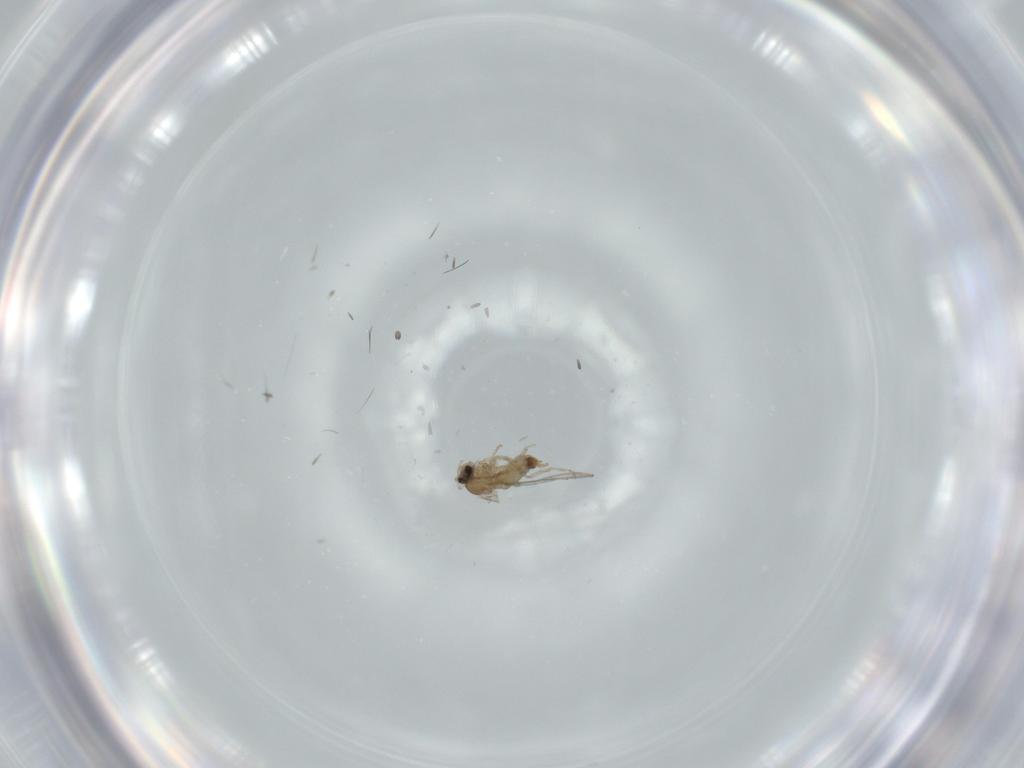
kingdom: Animalia
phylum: Arthropoda
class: Insecta
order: Diptera
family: Cecidomyiidae
